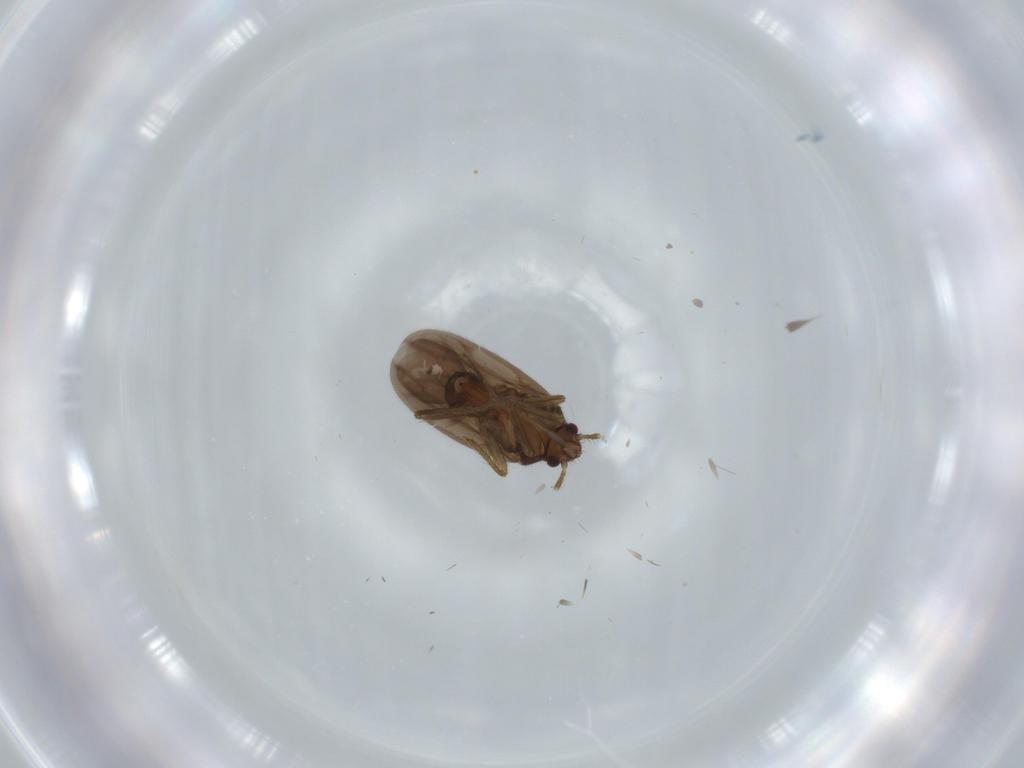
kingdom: Animalia
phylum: Arthropoda
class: Insecta
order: Hemiptera
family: Ceratocombidae
